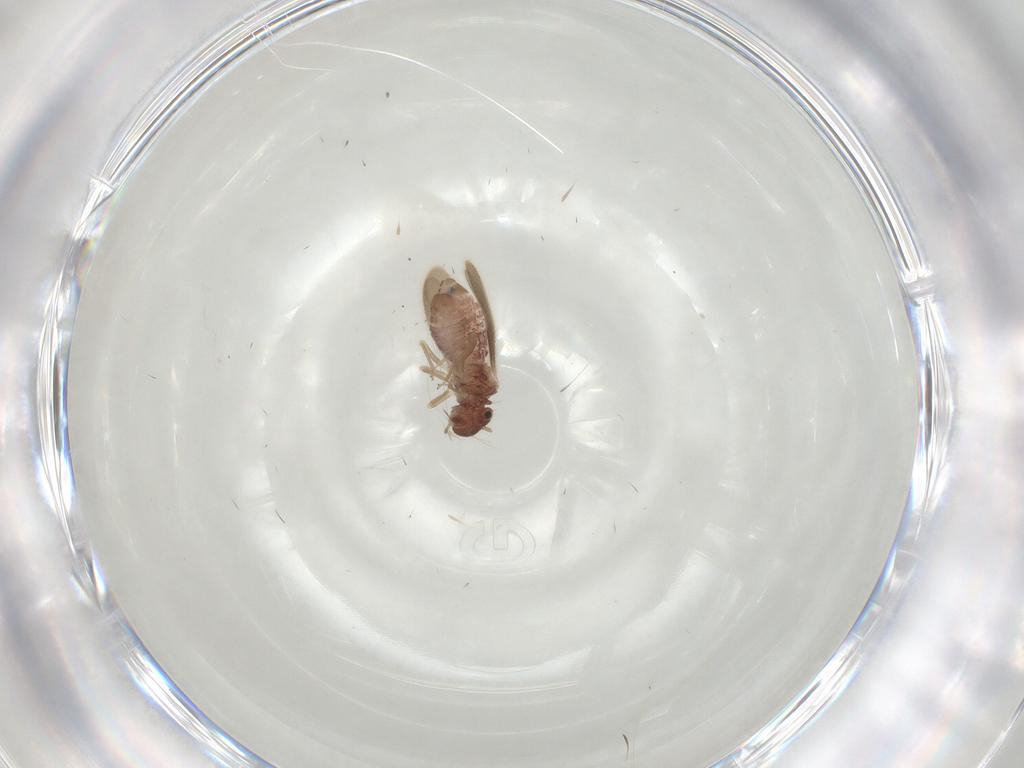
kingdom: Animalia
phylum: Arthropoda
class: Insecta
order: Psocodea
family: Archipsocidae
